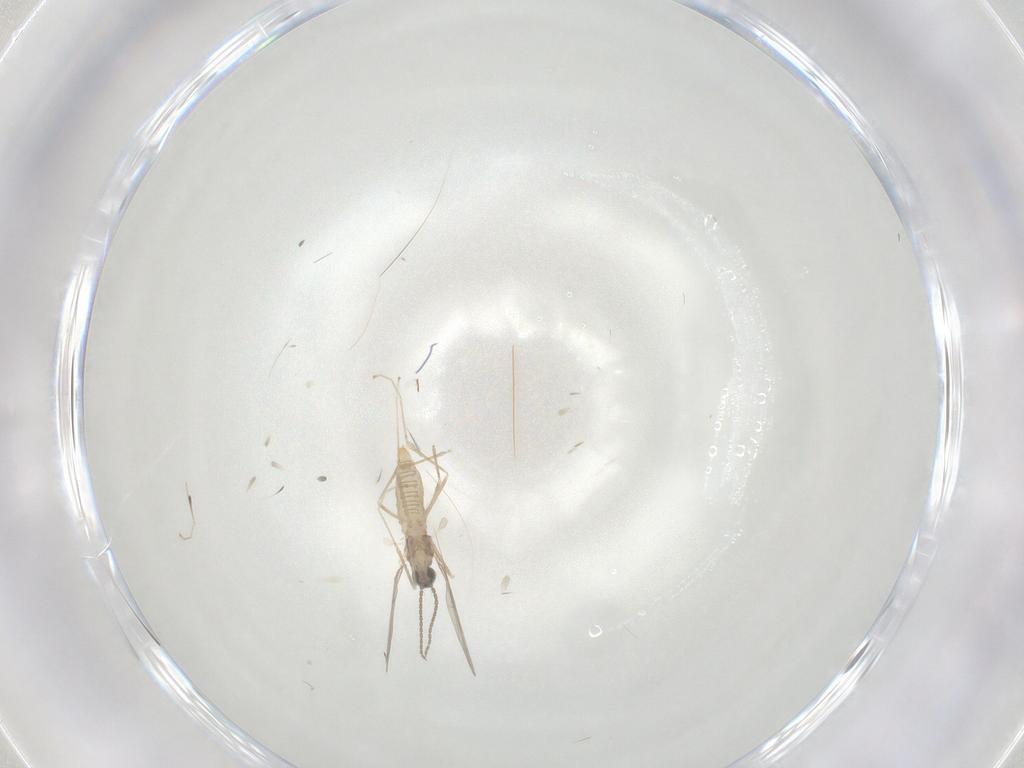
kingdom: Animalia
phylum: Arthropoda
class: Insecta
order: Diptera
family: Cecidomyiidae
